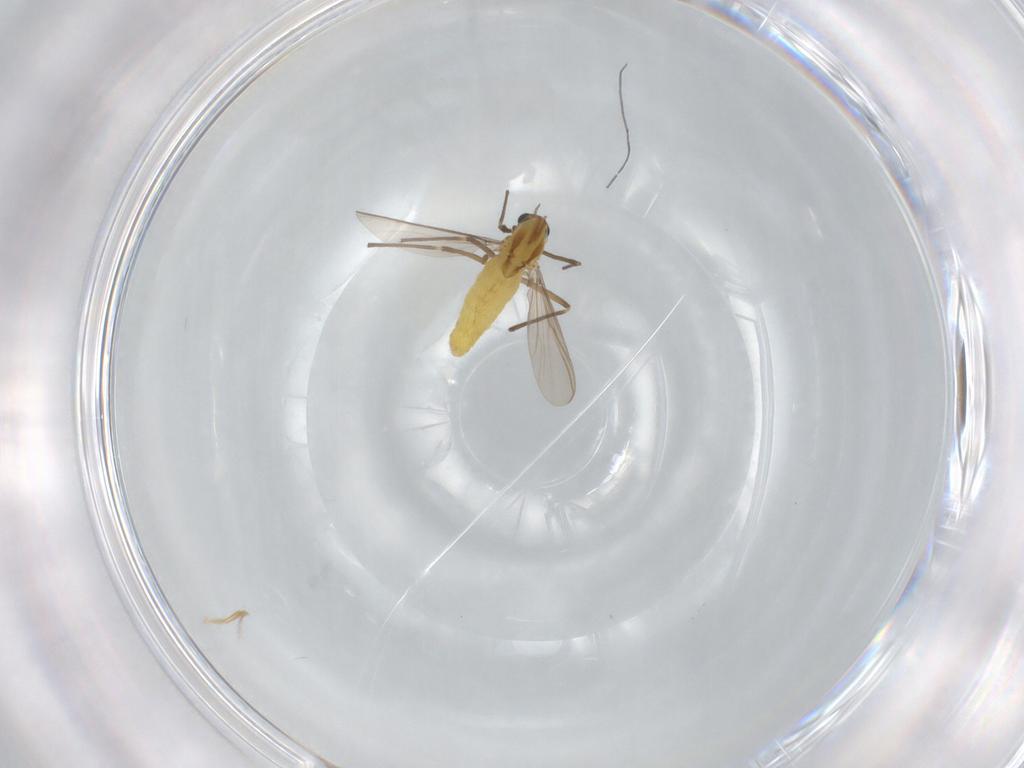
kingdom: Animalia
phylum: Arthropoda
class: Insecta
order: Diptera
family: Chironomidae
